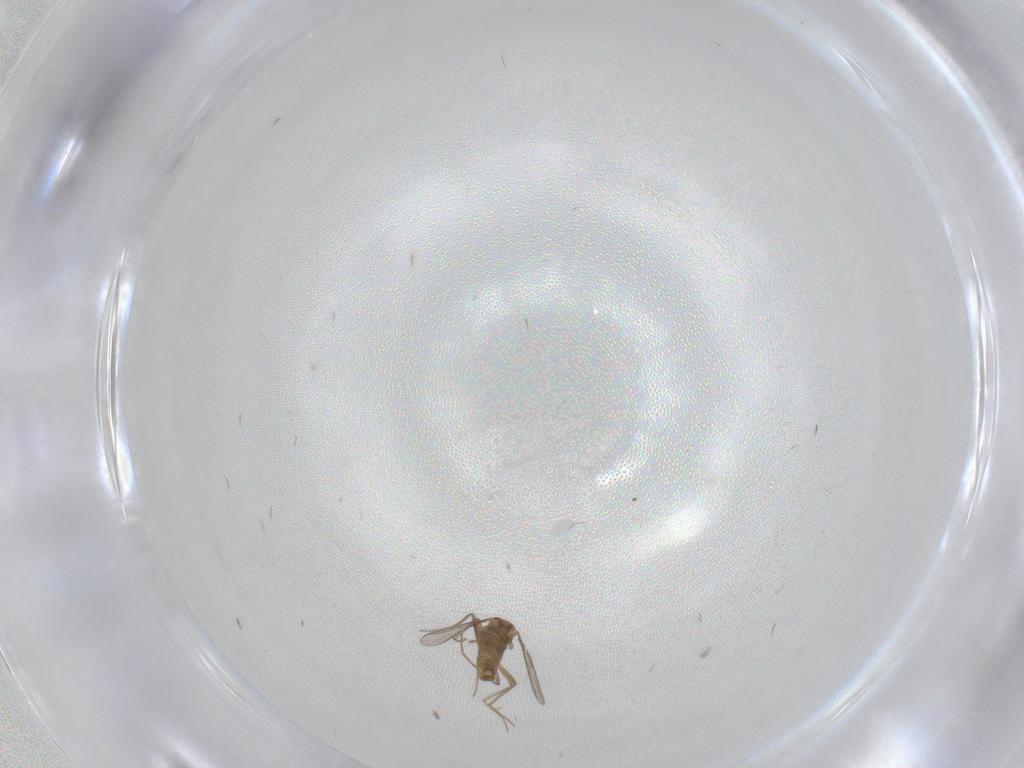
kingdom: Animalia
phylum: Arthropoda
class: Insecta
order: Diptera
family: Chironomidae
